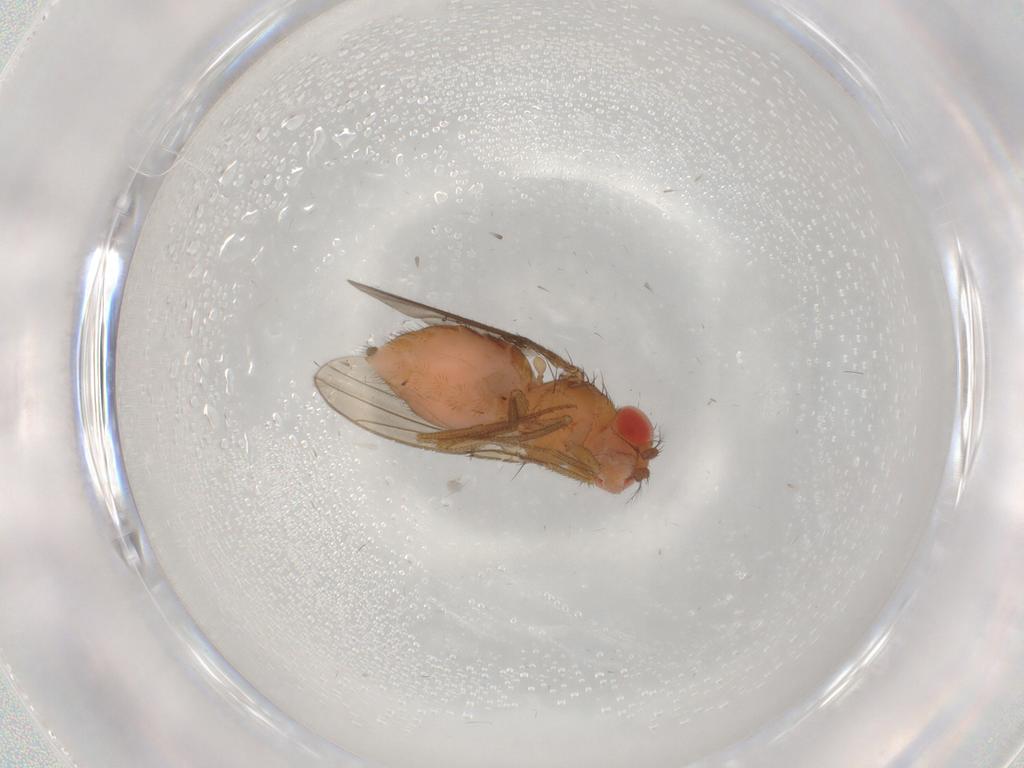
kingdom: Animalia
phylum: Arthropoda
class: Insecta
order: Diptera
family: Drosophilidae
